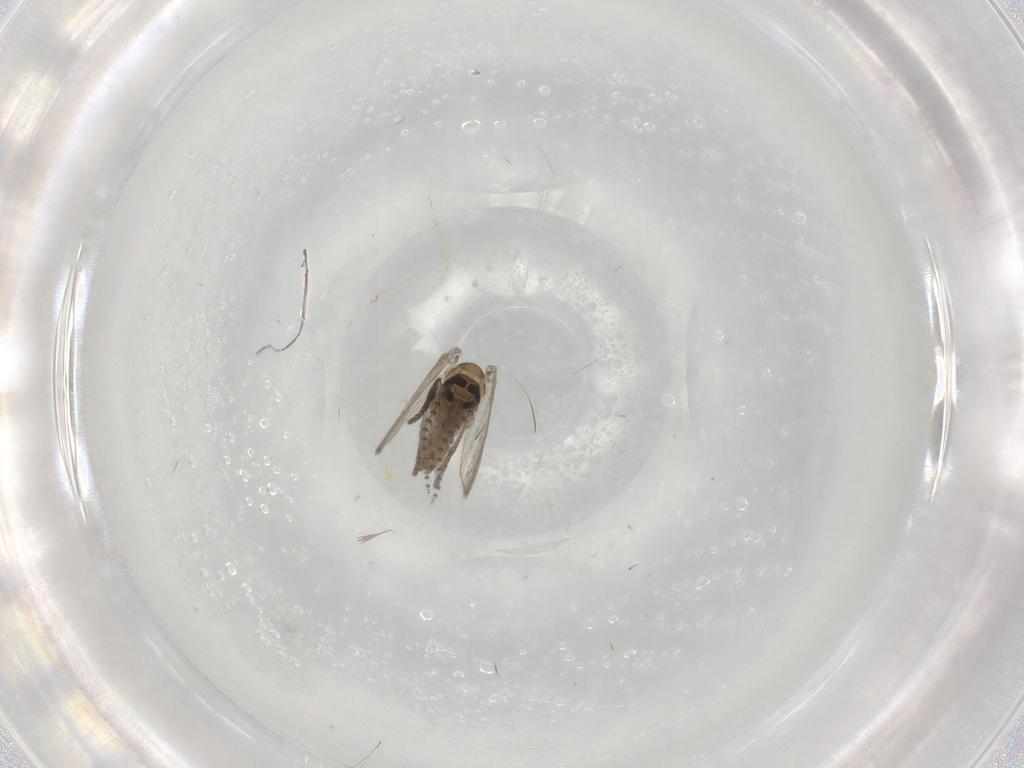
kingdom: Animalia
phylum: Arthropoda
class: Insecta
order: Diptera
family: Psychodidae
